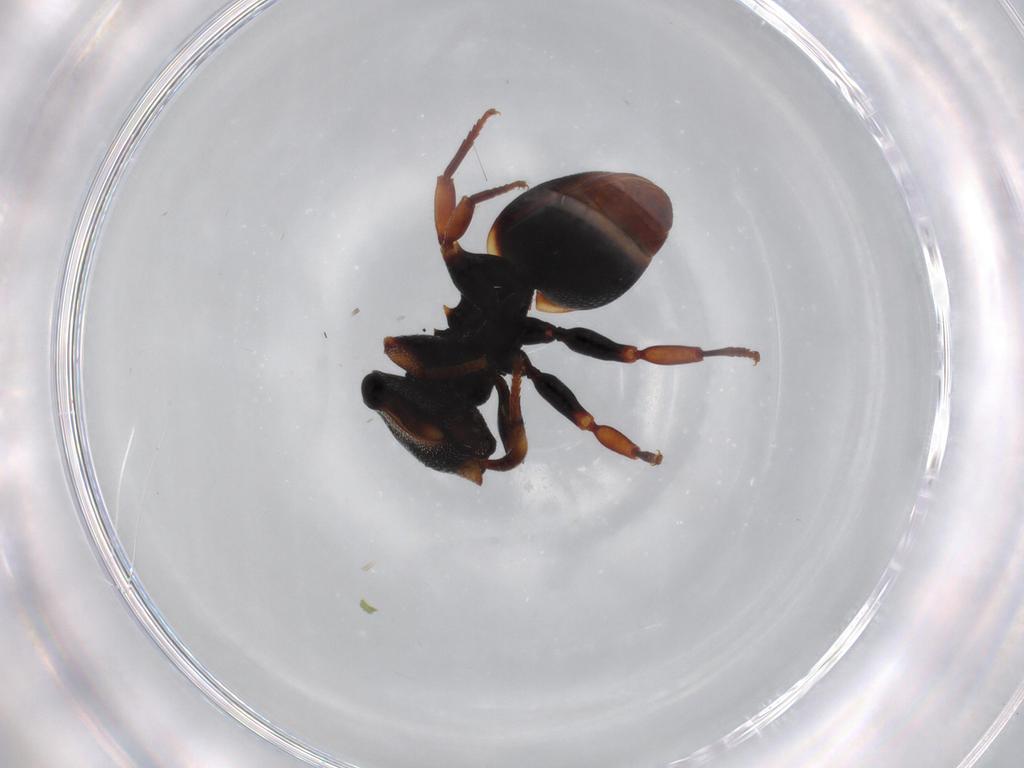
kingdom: Animalia
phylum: Arthropoda
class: Insecta
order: Hymenoptera
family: Formicidae
